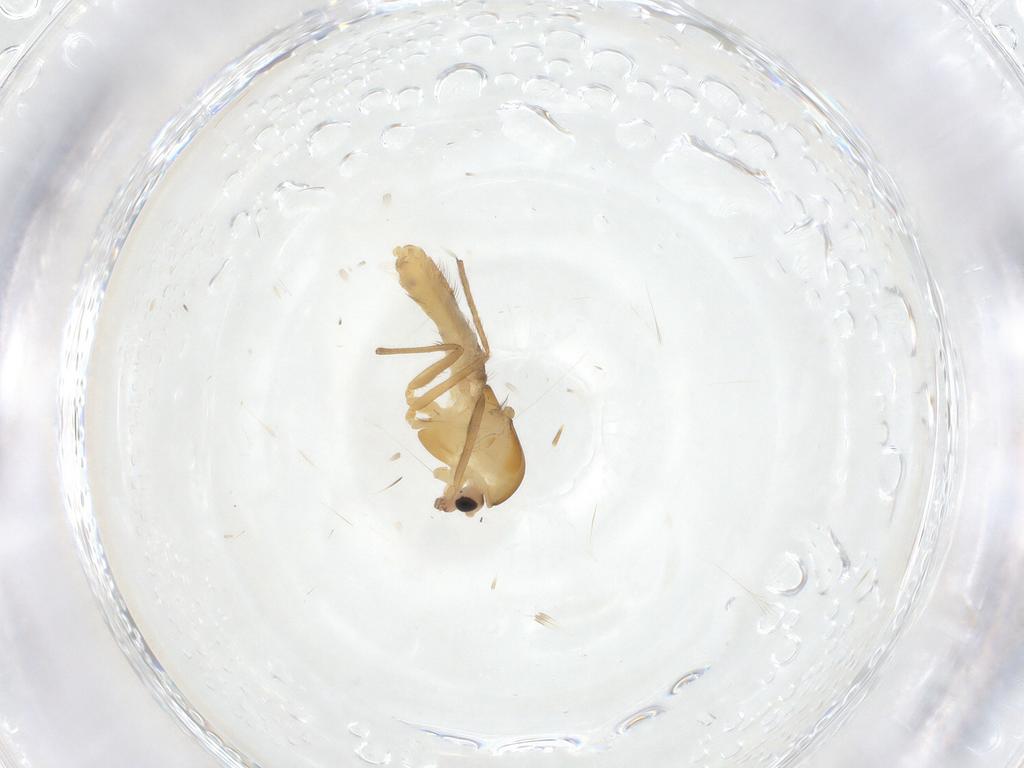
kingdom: Animalia
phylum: Arthropoda
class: Insecta
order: Diptera
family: Chironomidae
